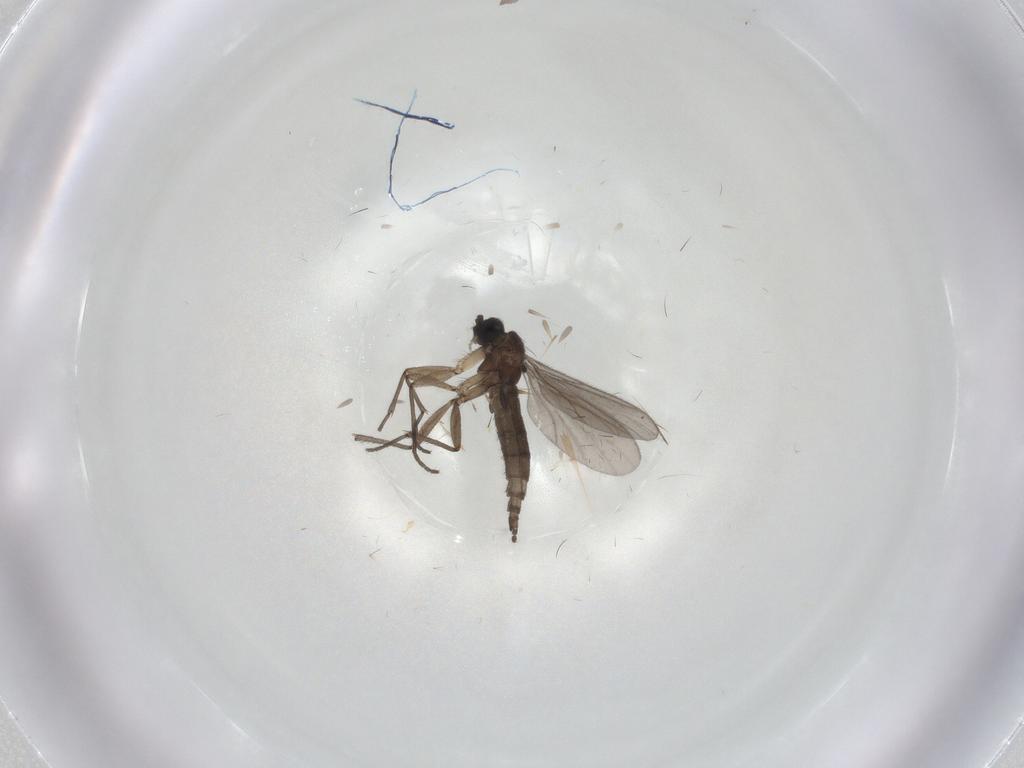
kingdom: Animalia
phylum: Arthropoda
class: Insecta
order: Diptera
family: Sciaridae
